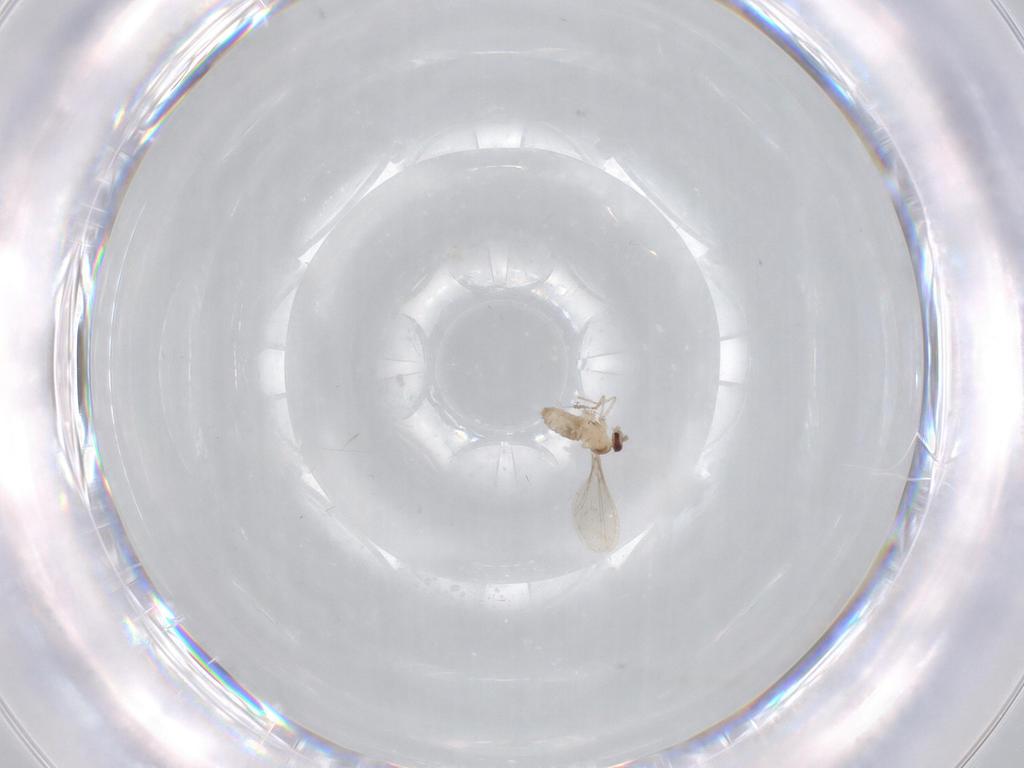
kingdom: Animalia
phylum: Arthropoda
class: Insecta
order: Diptera
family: Cecidomyiidae
